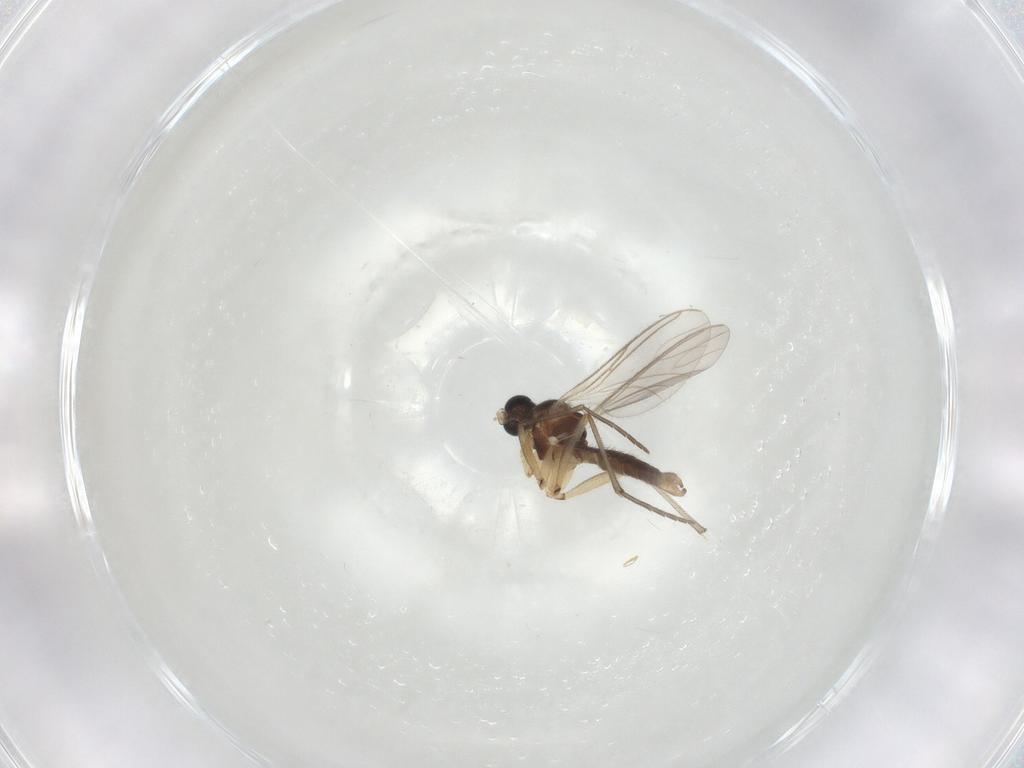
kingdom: Animalia
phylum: Arthropoda
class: Insecta
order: Diptera
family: Sciaridae
